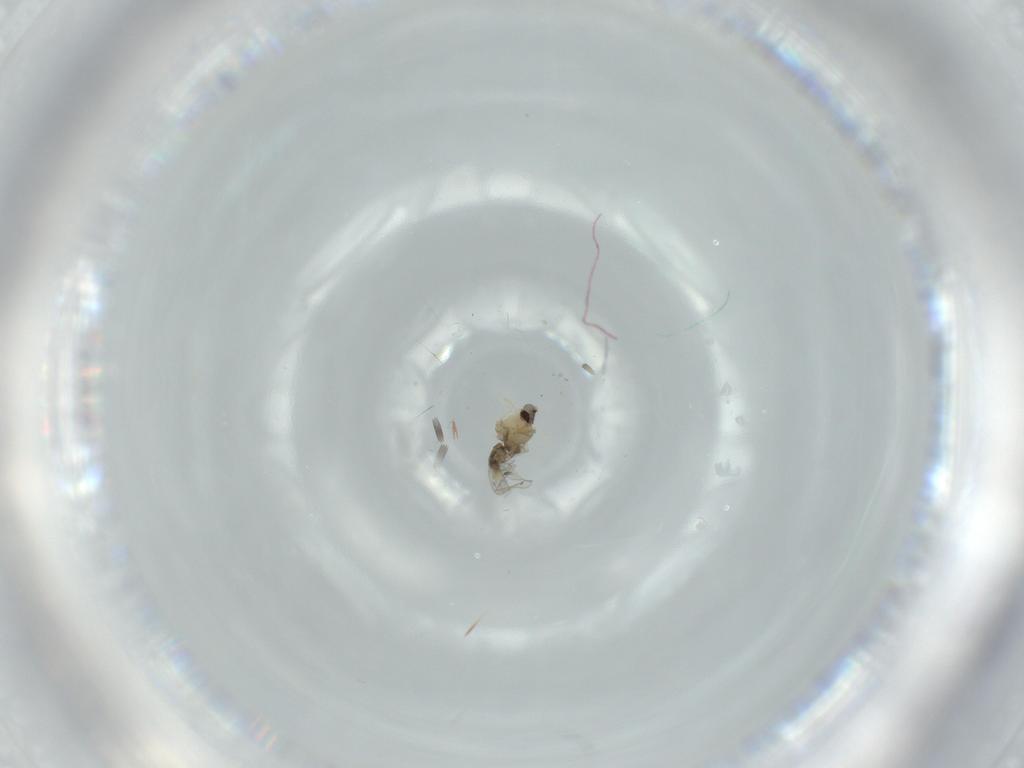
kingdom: Animalia
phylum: Arthropoda
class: Insecta
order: Diptera
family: Cecidomyiidae
